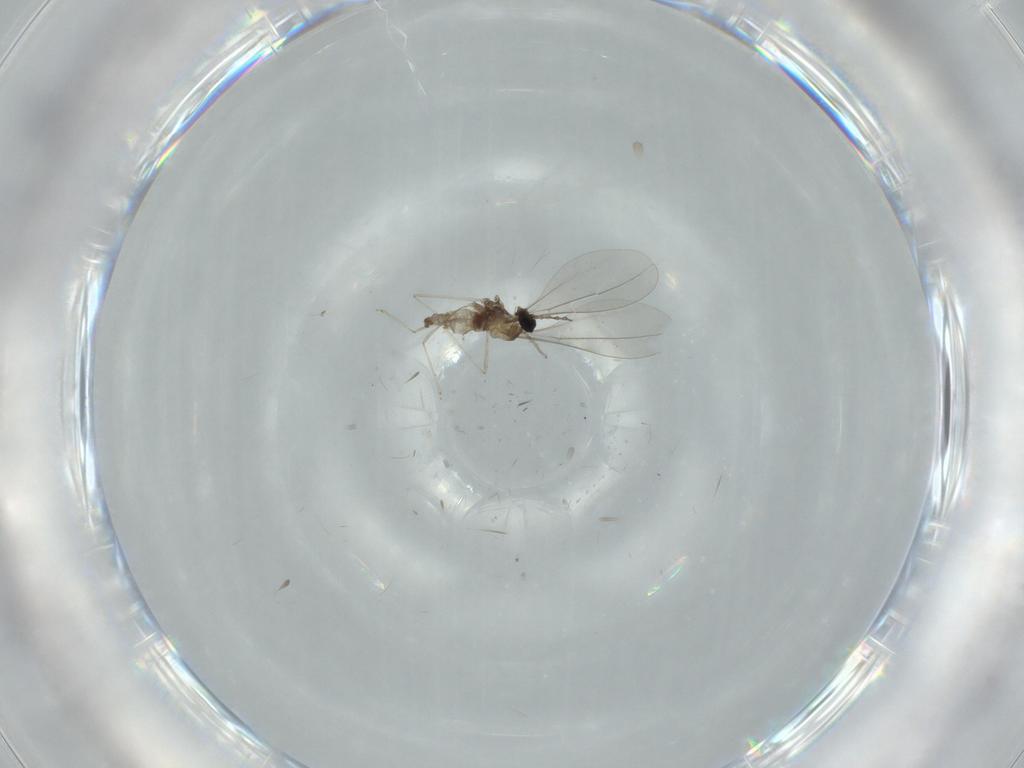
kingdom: Animalia
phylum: Arthropoda
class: Insecta
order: Diptera
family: Cecidomyiidae
